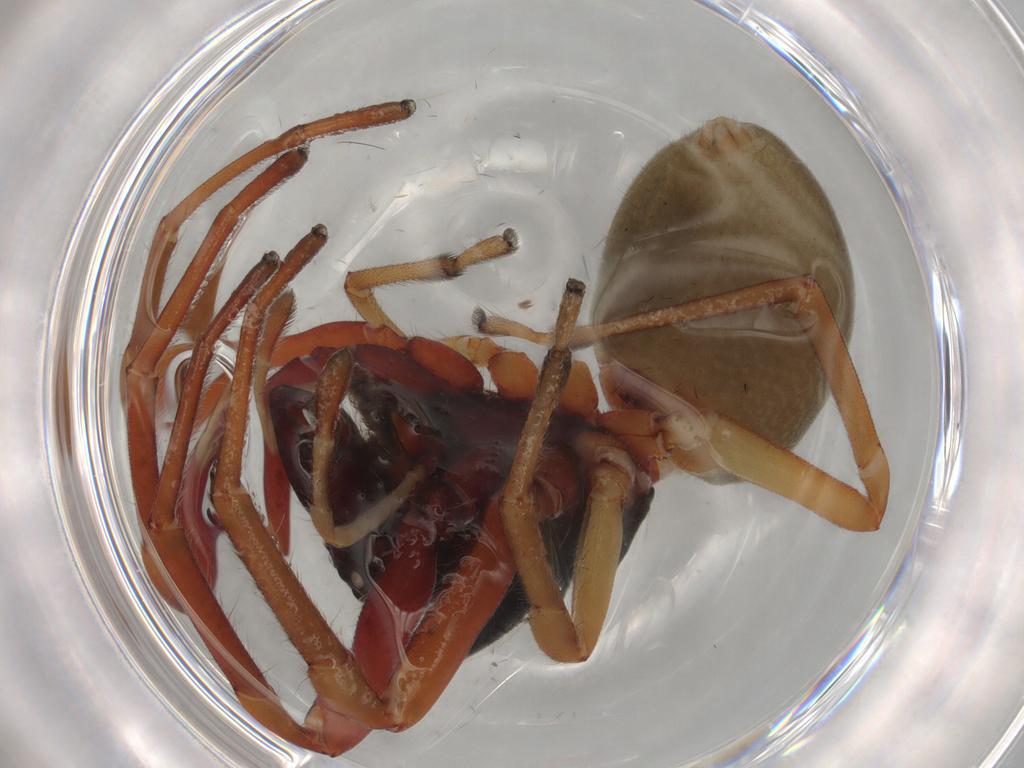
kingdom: Animalia
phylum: Arthropoda
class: Arachnida
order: Araneae
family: Trachelidae
